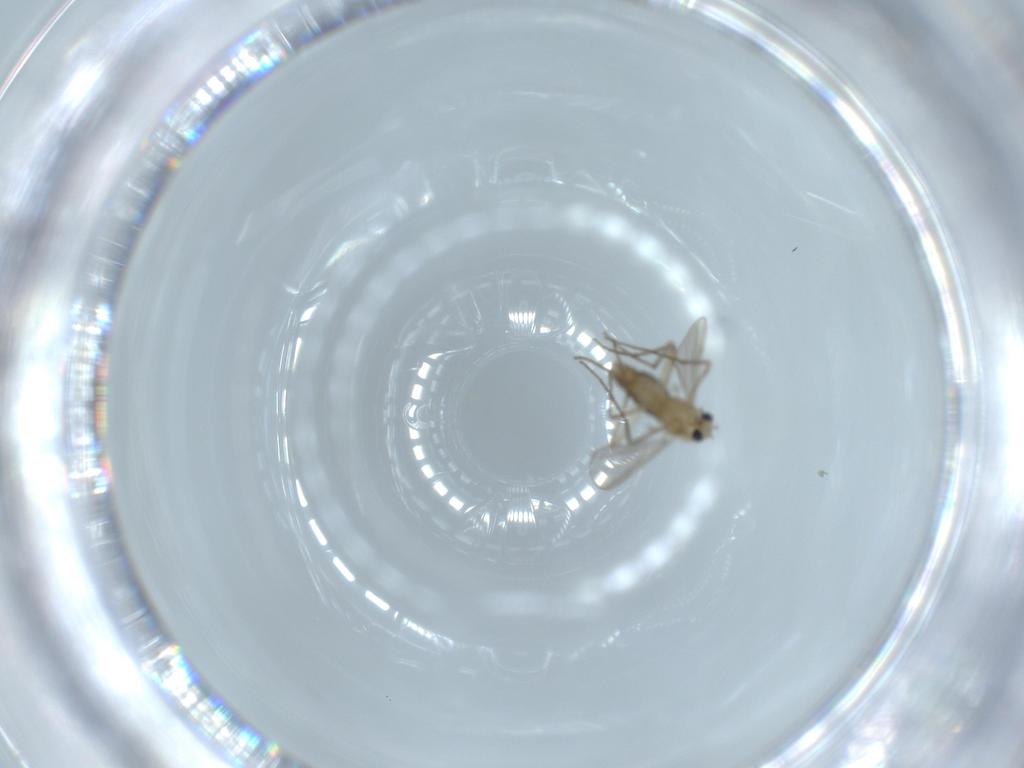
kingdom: Animalia
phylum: Arthropoda
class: Insecta
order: Diptera
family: Chironomidae
